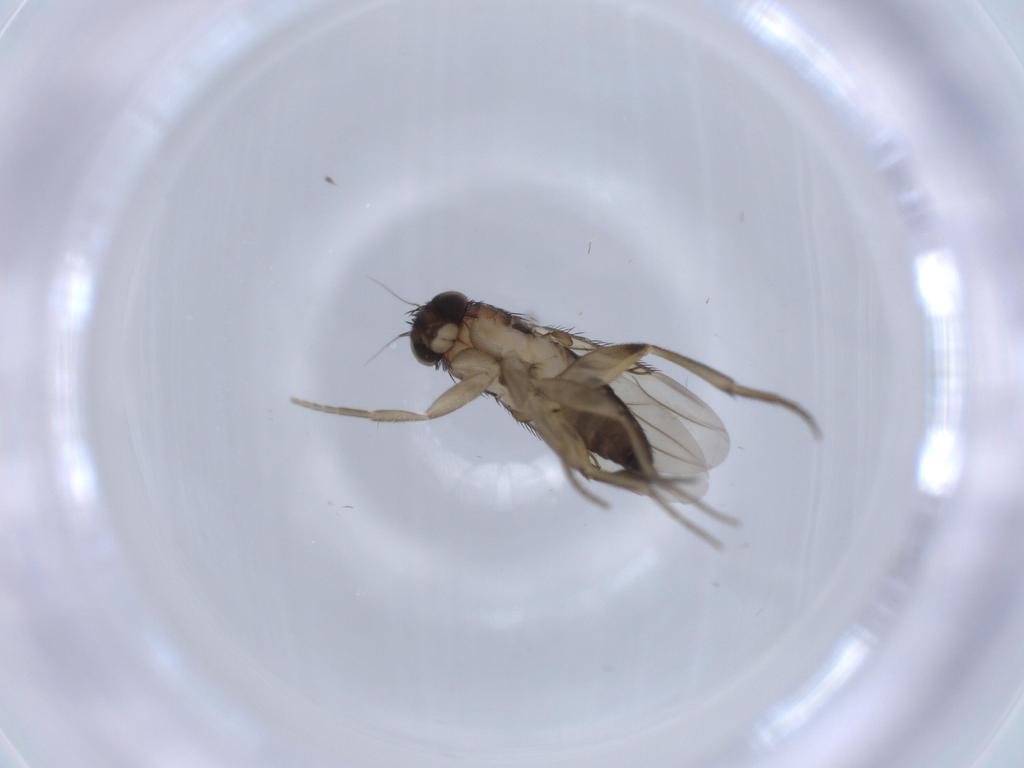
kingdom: Animalia
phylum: Arthropoda
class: Insecta
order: Diptera
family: Phoridae
